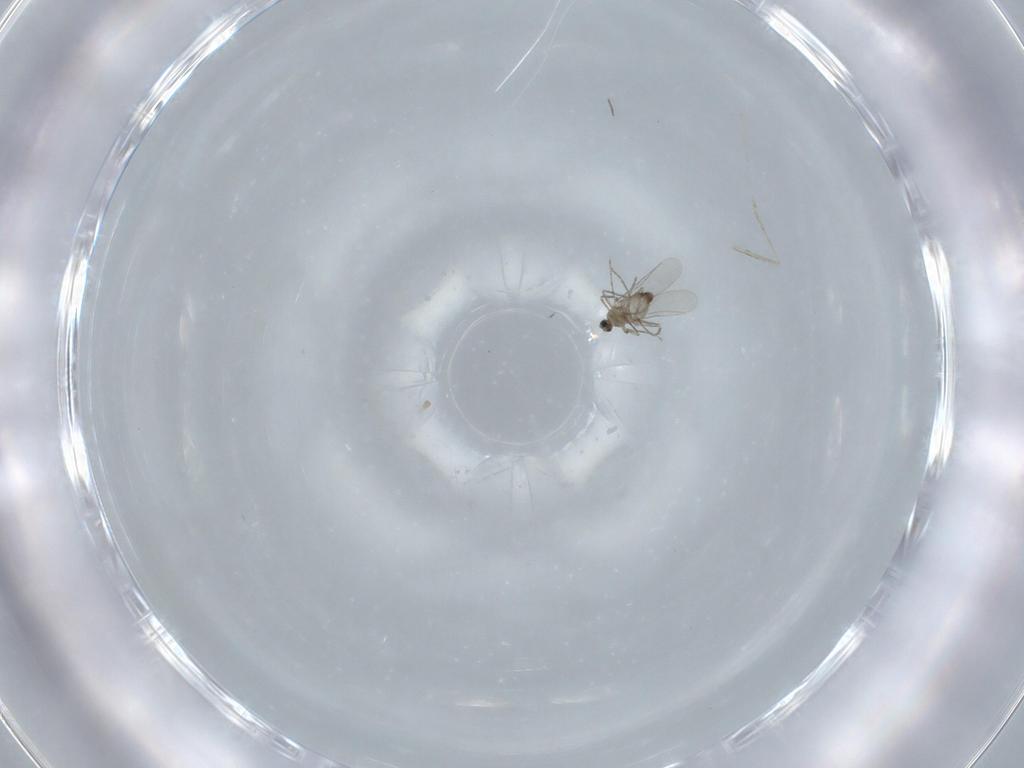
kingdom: Animalia
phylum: Arthropoda
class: Insecta
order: Diptera
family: Cecidomyiidae
